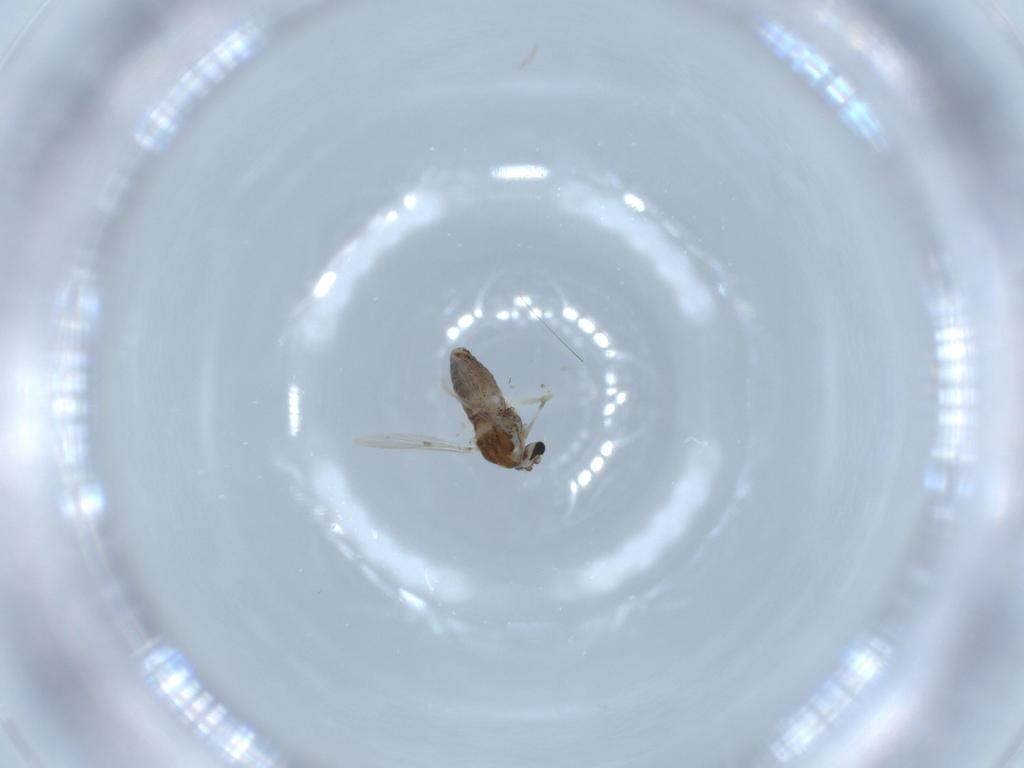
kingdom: Animalia
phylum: Arthropoda
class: Insecta
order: Diptera
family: Chironomidae
